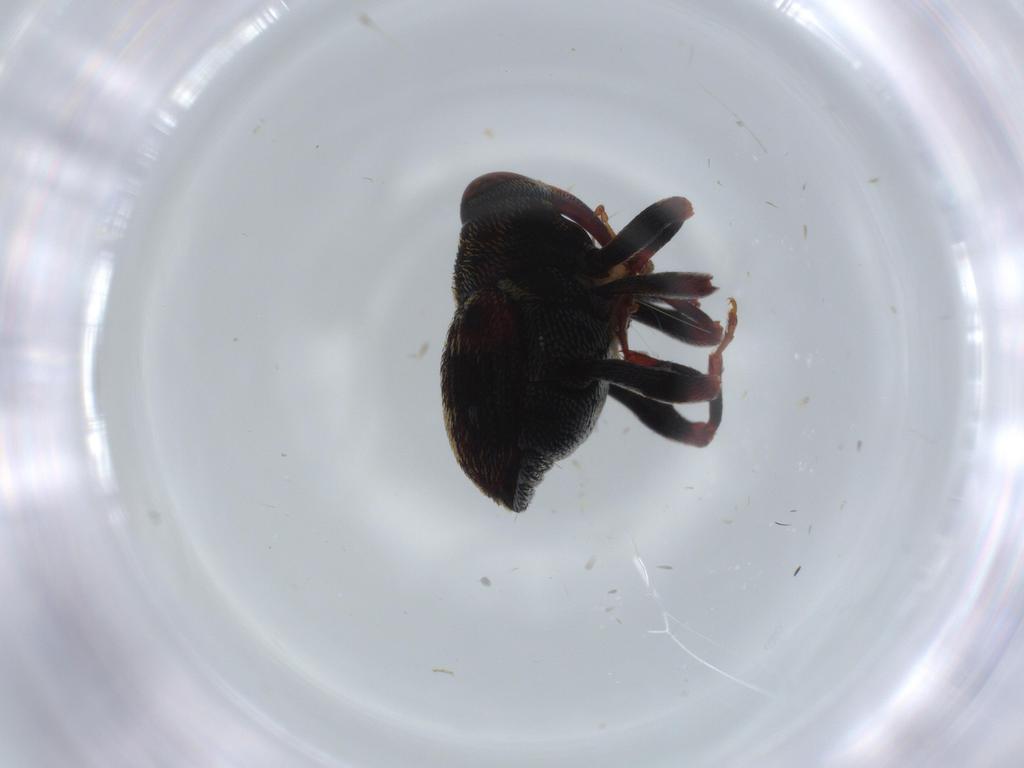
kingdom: Animalia
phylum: Arthropoda
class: Insecta
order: Coleoptera
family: Curculionidae
